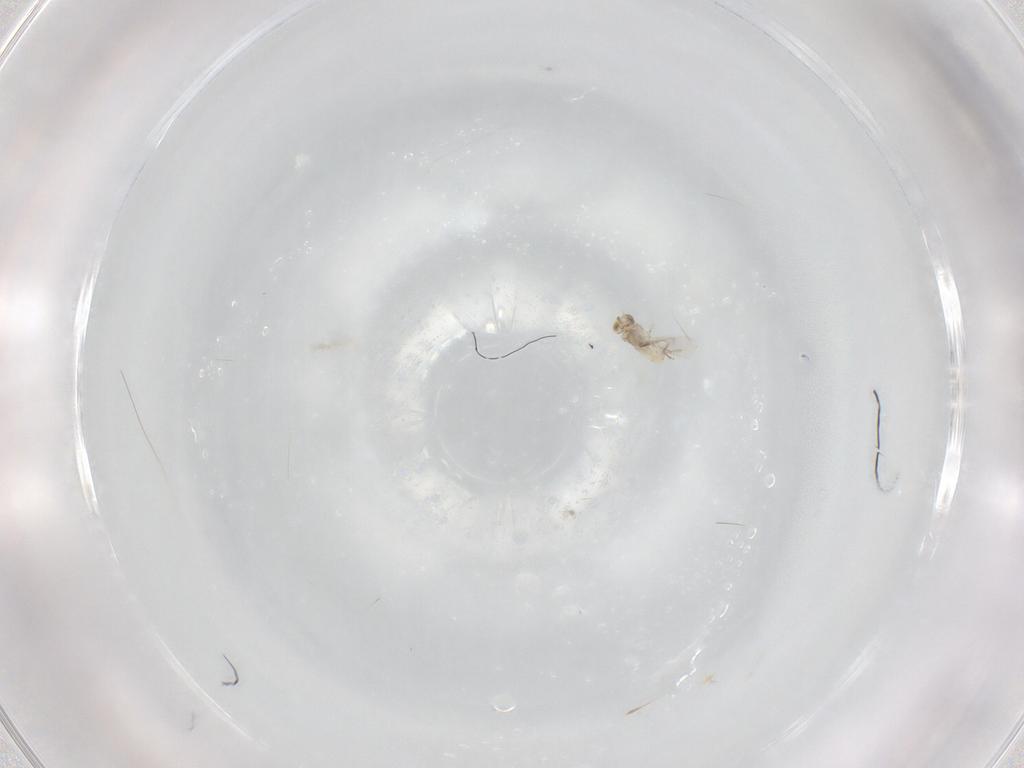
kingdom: Animalia
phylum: Arthropoda
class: Insecta
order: Hymenoptera
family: Aphelinidae
